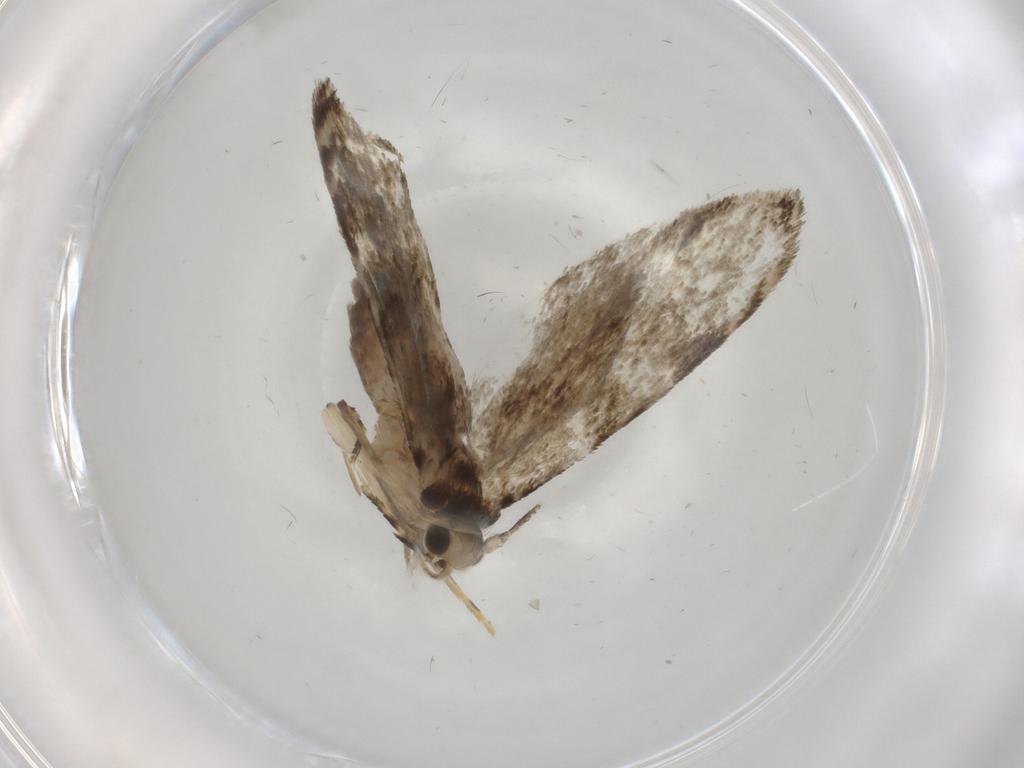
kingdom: Animalia
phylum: Arthropoda
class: Insecta
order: Lepidoptera
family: Tineidae
